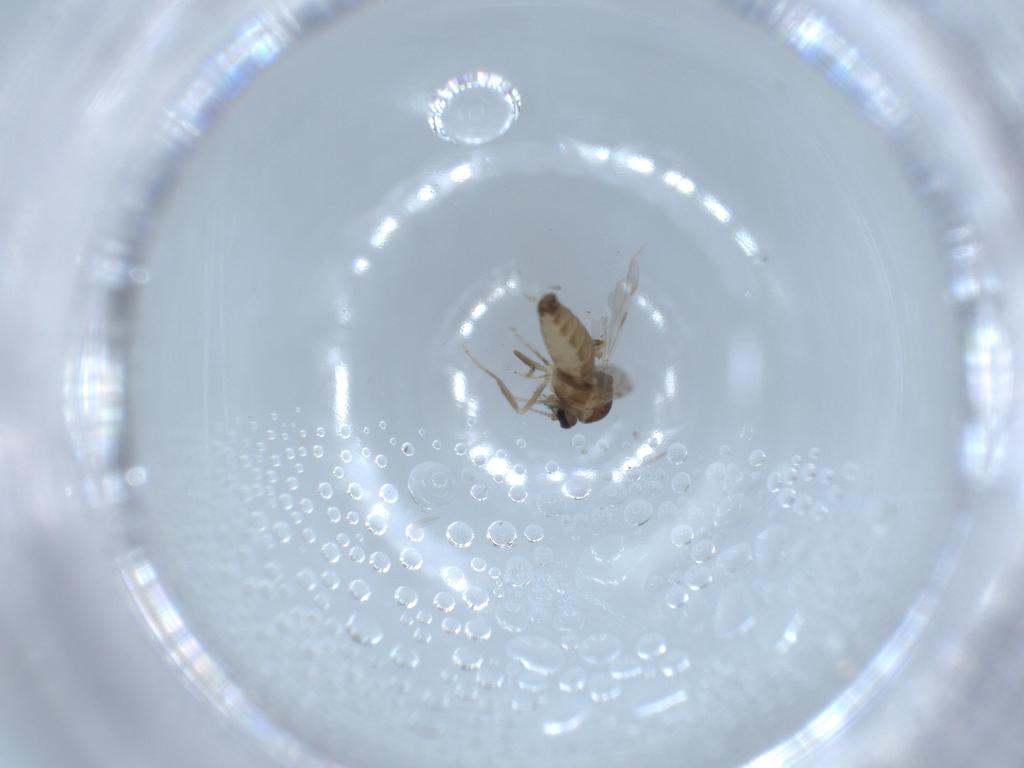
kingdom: Animalia
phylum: Arthropoda
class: Insecta
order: Diptera
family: Ceratopogonidae
